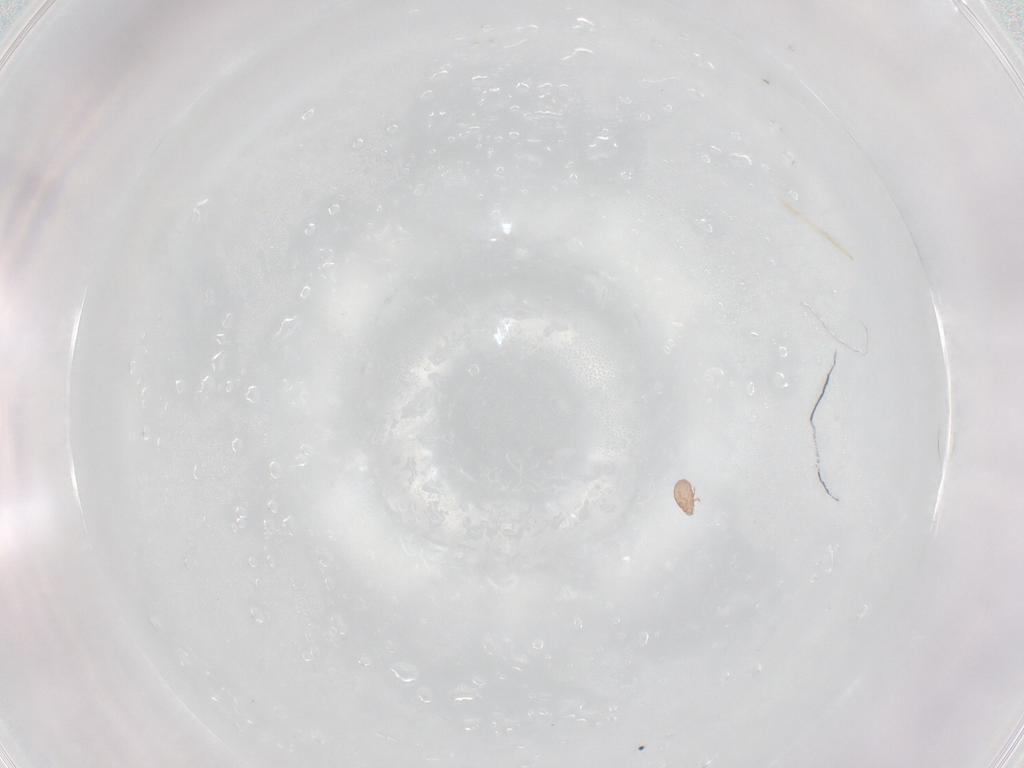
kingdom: Animalia
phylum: Arthropoda
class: Arachnida
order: Sarcoptiformes
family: Eremaeidae
